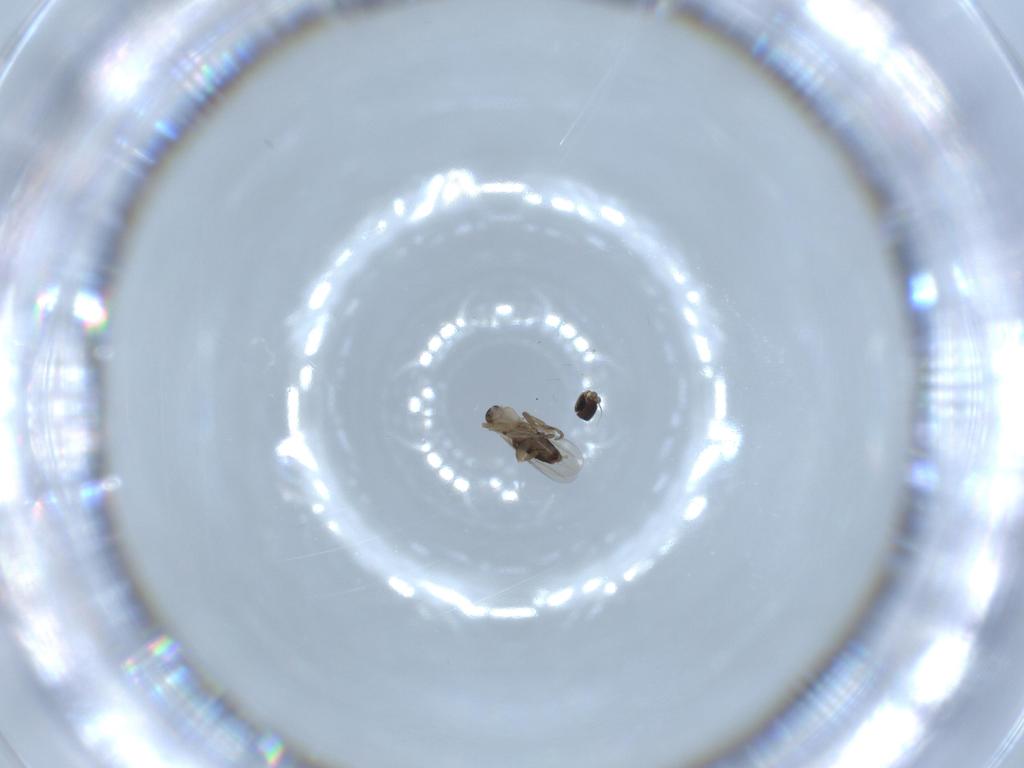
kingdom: Animalia
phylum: Arthropoda
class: Insecta
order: Diptera
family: Phoridae
